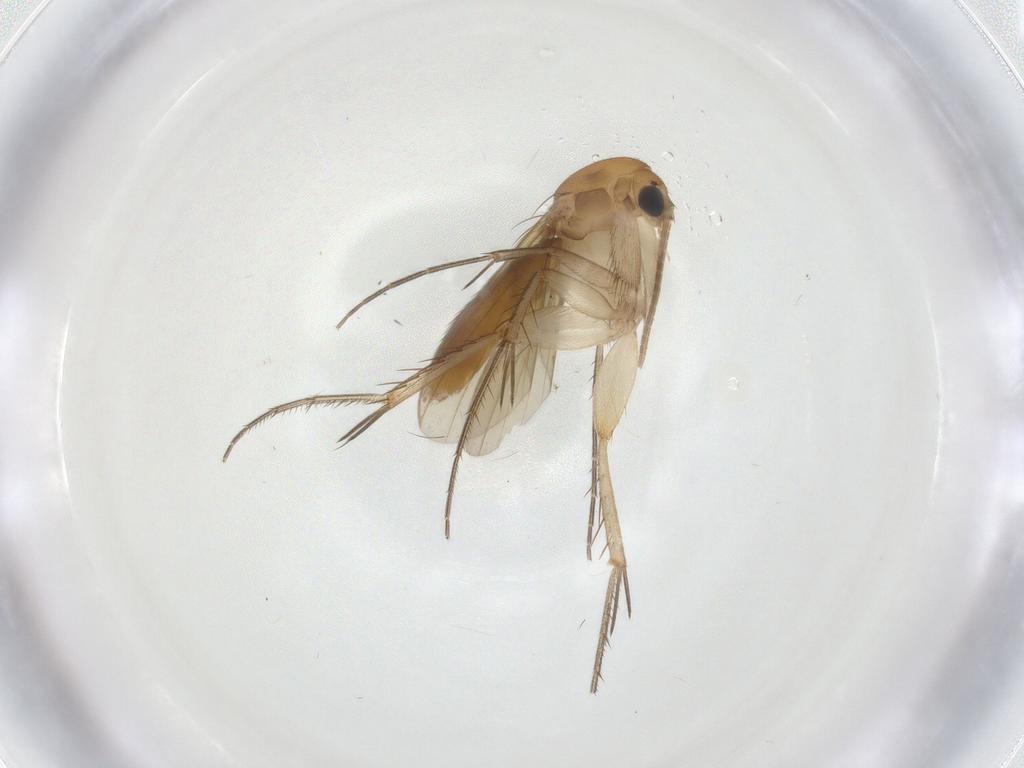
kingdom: Animalia
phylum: Arthropoda
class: Insecta
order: Diptera
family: Mycetophilidae
